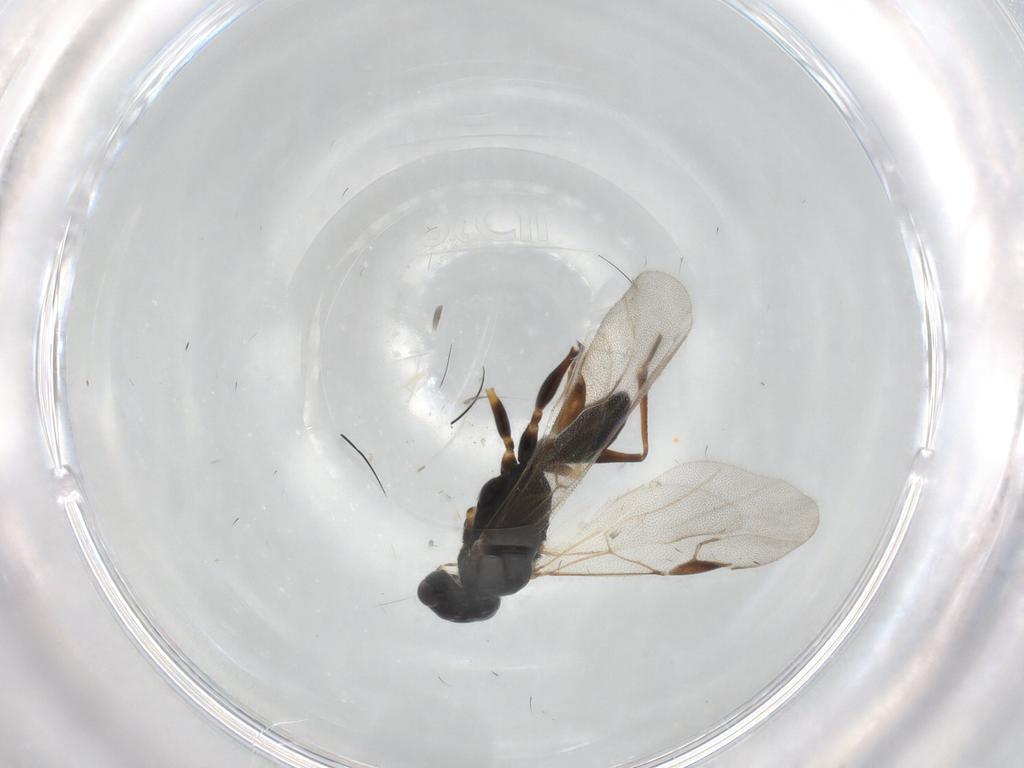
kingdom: Animalia
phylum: Arthropoda
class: Insecta
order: Hymenoptera
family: Dryinidae
